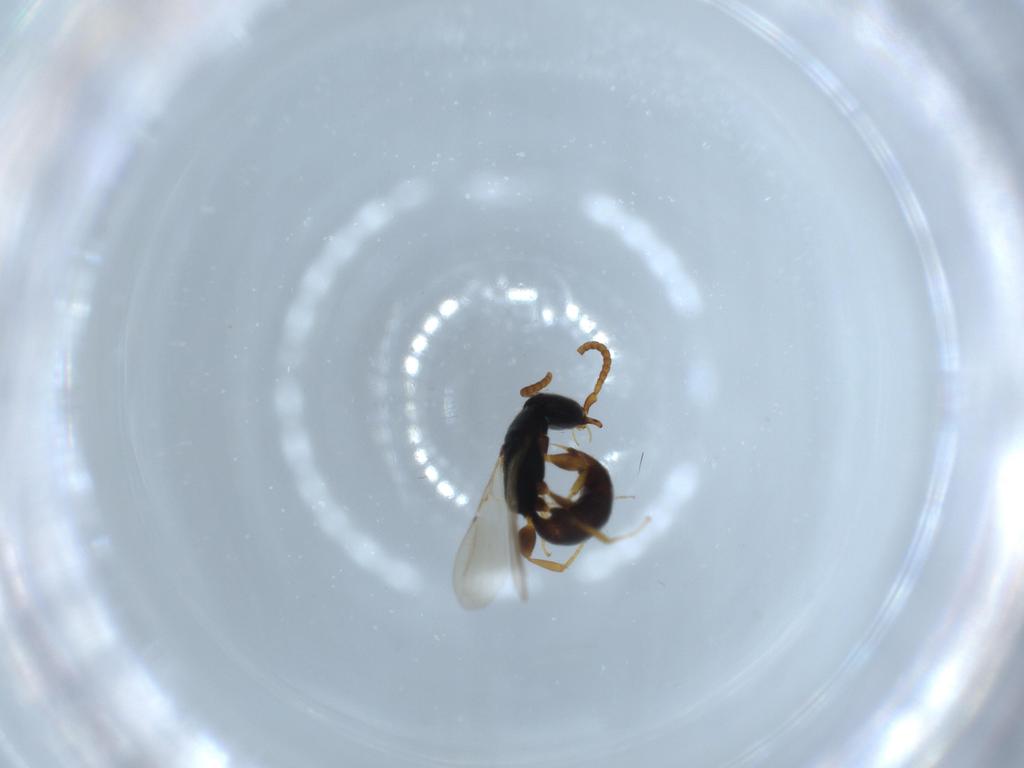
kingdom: Animalia
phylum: Arthropoda
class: Insecta
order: Hymenoptera
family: Bethylidae
